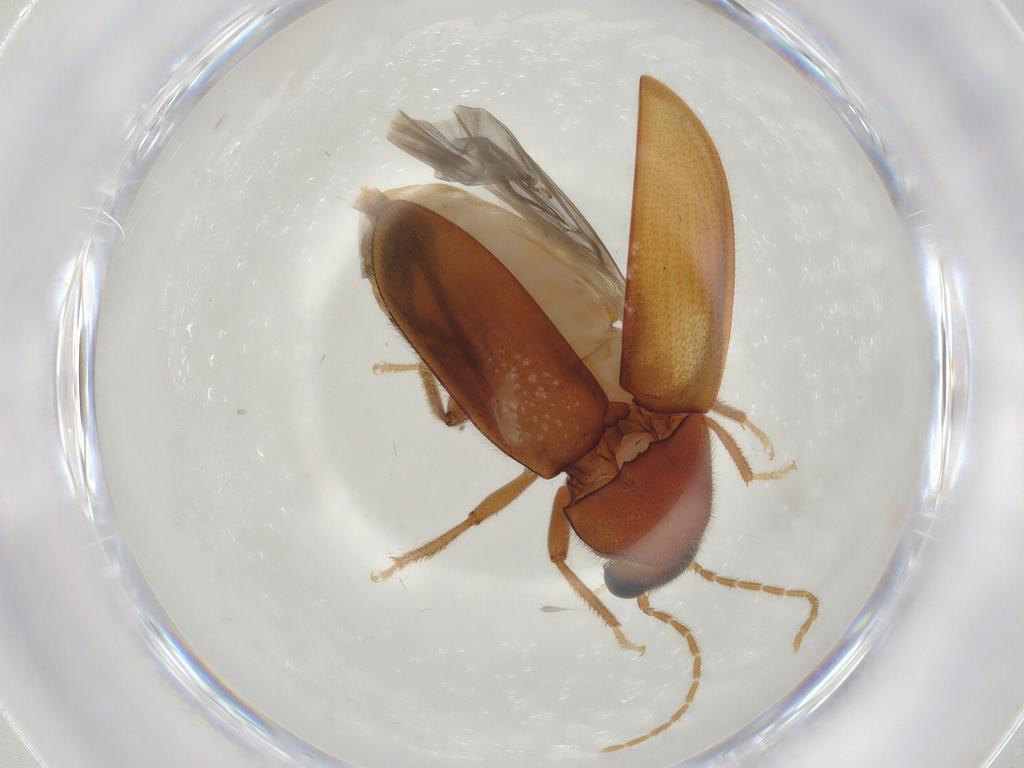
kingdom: Animalia
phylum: Arthropoda
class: Insecta
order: Coleoptera
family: Ptilodactylidae
